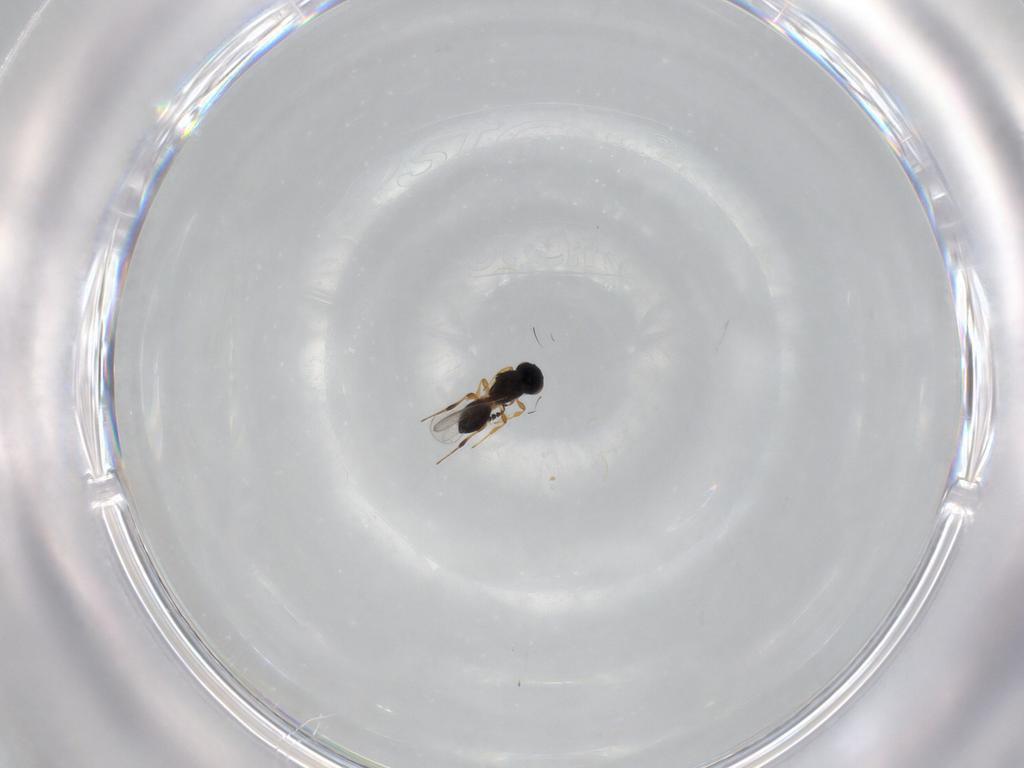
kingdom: Animalia
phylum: Arthropoda
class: Insecta
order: Hymenoptera
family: Platygastridae
